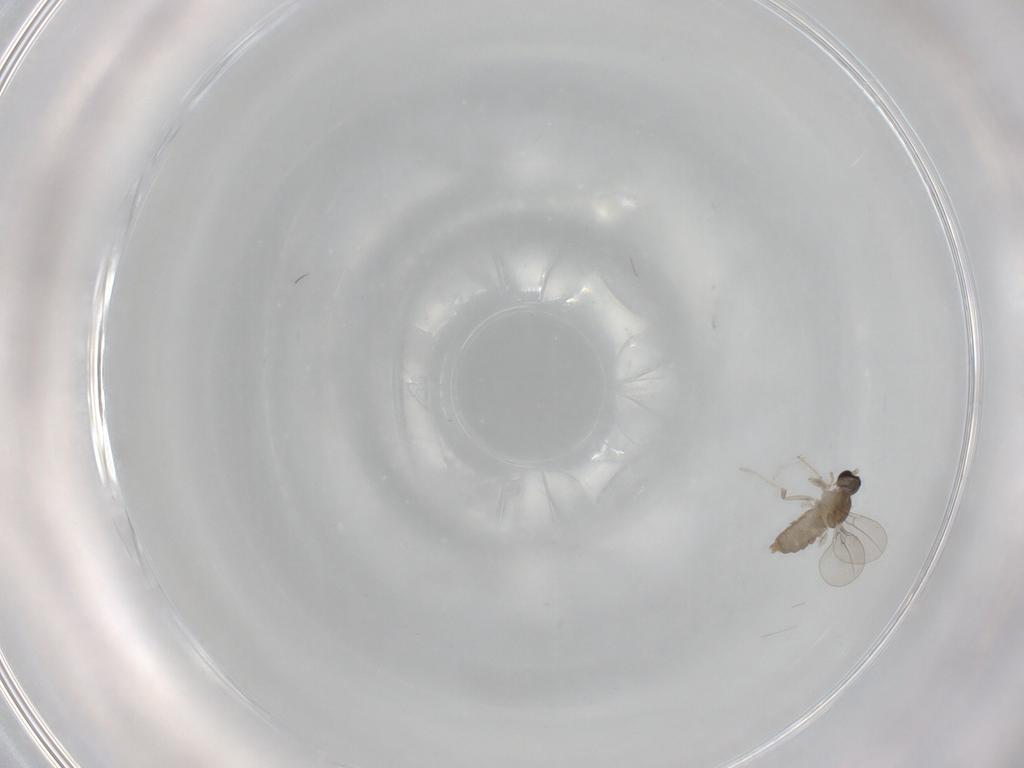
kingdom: Animalia
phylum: Arthropoda
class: Insecta
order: Diptera
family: Cecidomyiidae
